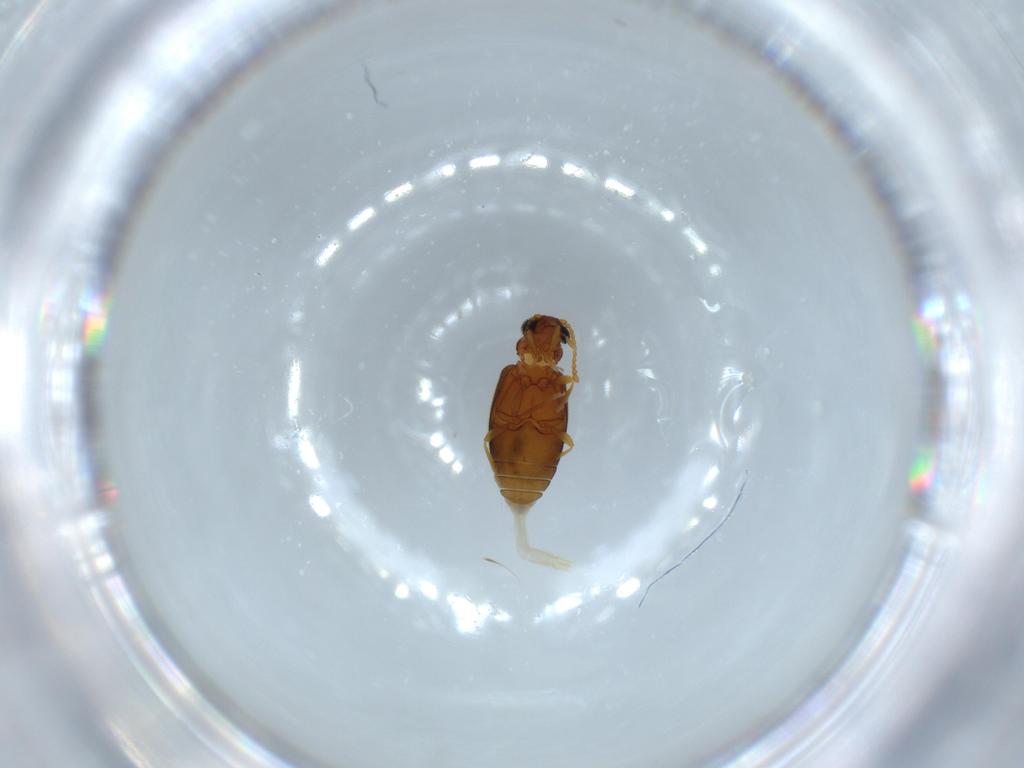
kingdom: Animalia
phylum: Arthropoda
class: Insecta
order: Coleoptera
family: Aderidae
